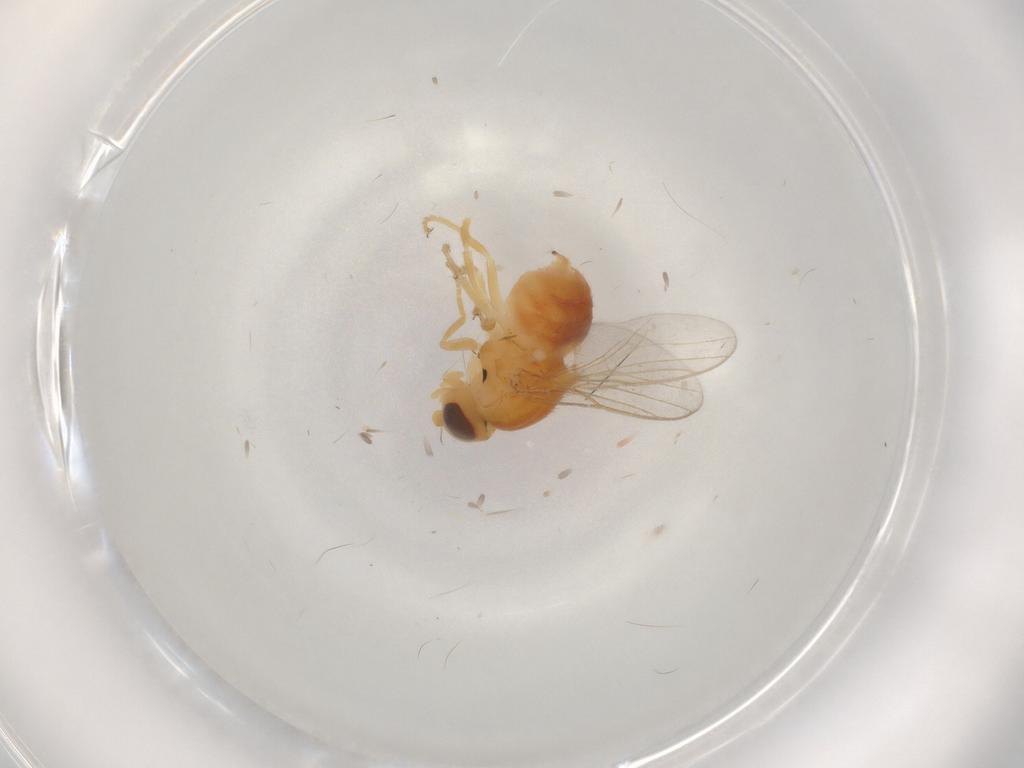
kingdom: Animalia
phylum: Arthropoda
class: Insecta
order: Diptera
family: Chloropidae
